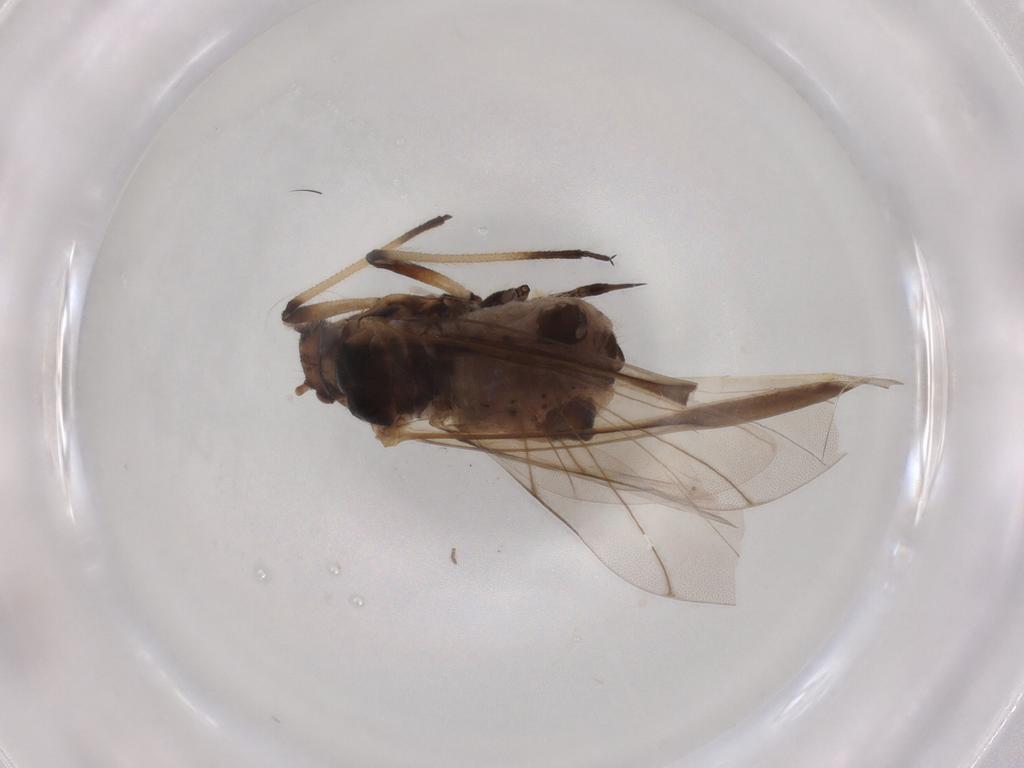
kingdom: Animalia
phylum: Arthropoda
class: Insecta
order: Hemiptera
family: Aphididae
